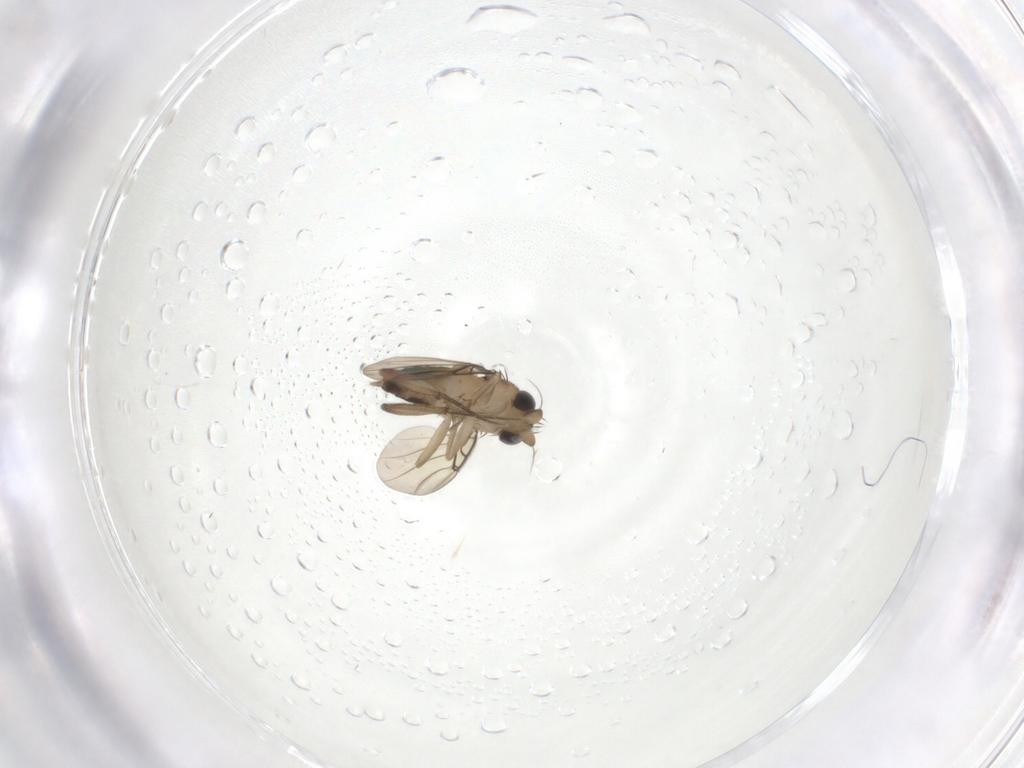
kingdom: Animalia
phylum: Arthropoda
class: Insecta
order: Diptera
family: Phoridae
